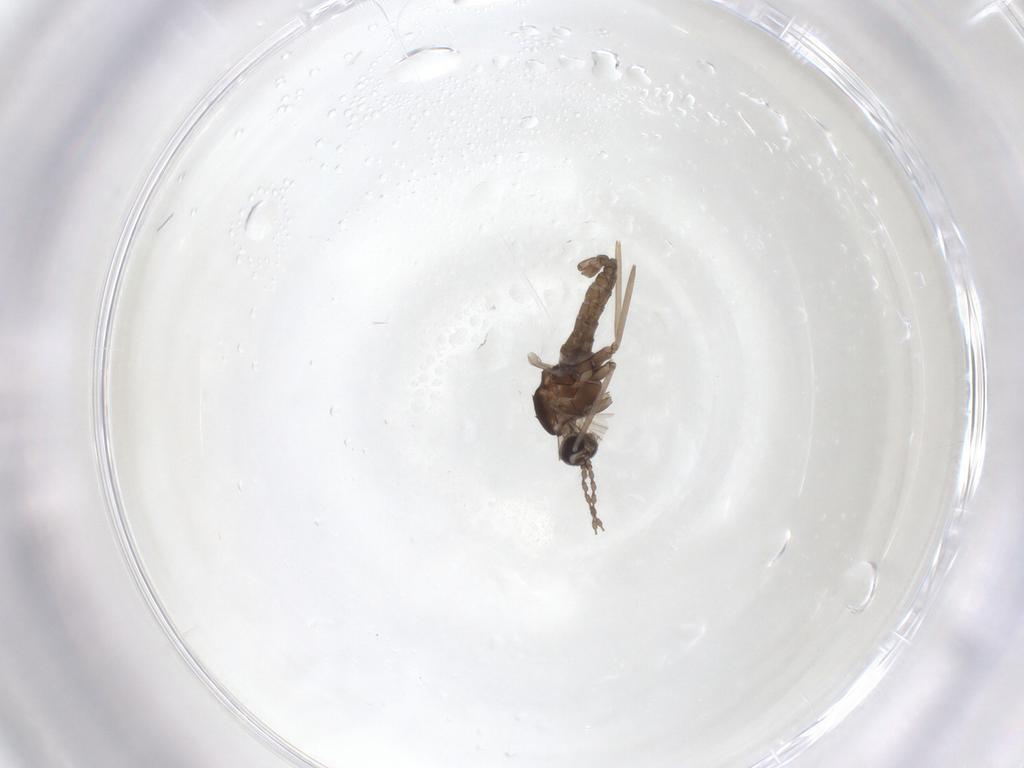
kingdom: Animalia
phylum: Arthropoda
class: Insecta
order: Diptera
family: Cecidomyiidae
